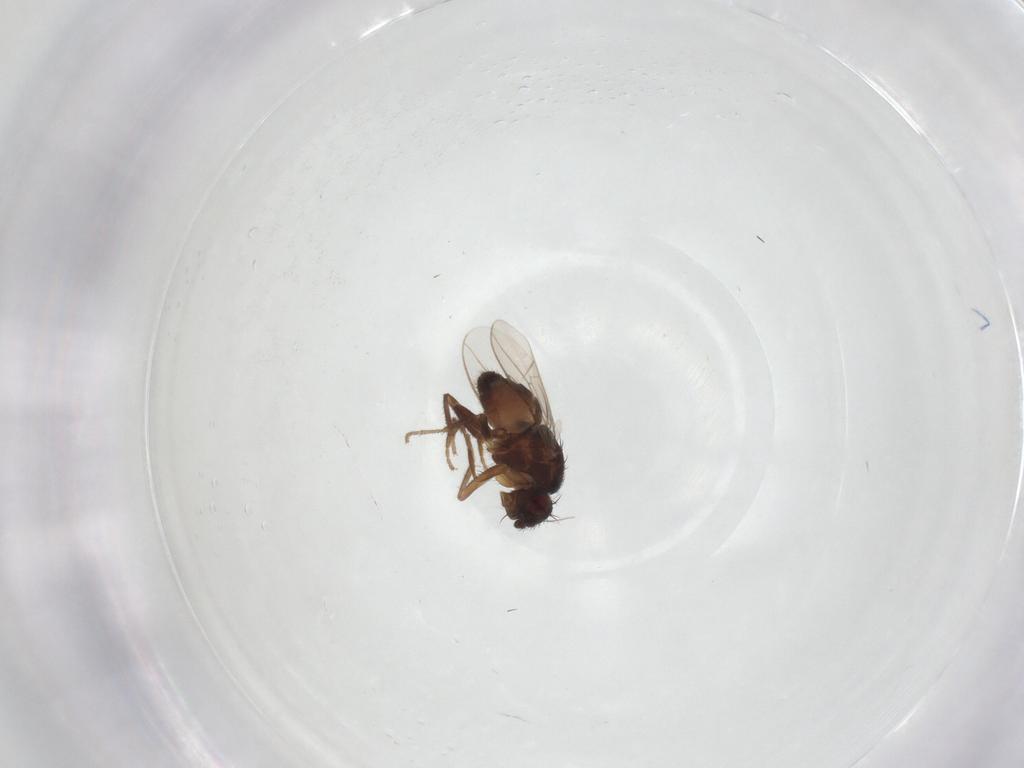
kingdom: Animalia
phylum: Arthropoda
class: Insecta
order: Diptera
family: Sphaeroceridae
